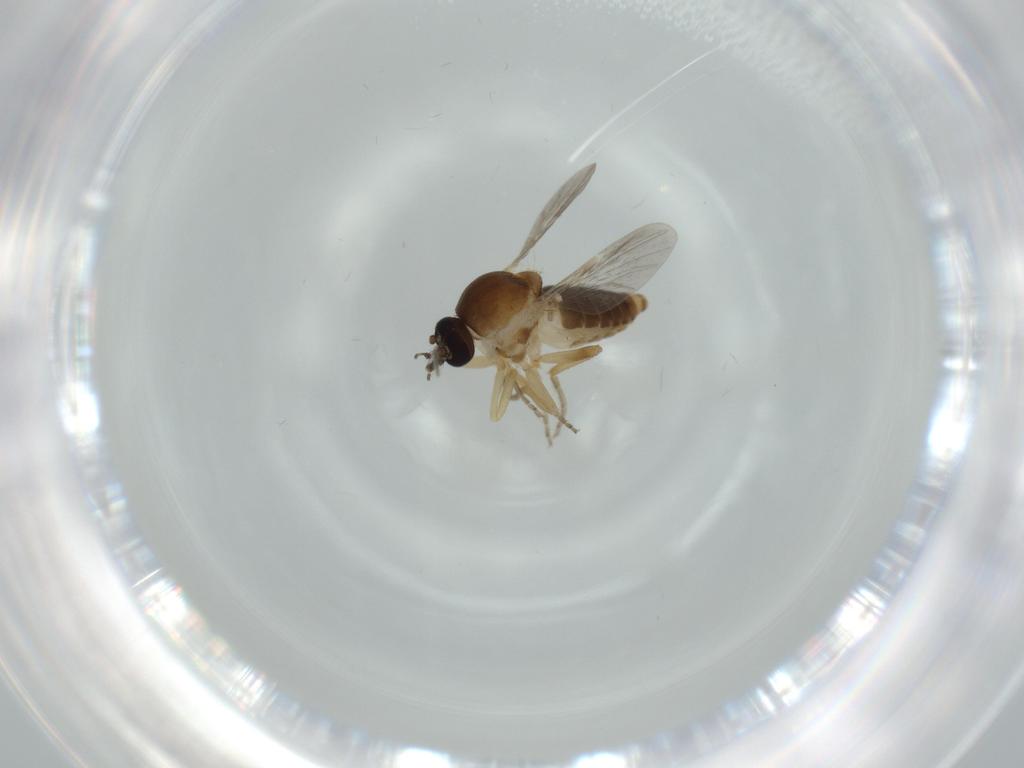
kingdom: Animalia
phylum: Arthropoda
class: Insecta
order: Diptera
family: Ceratopogonidae
